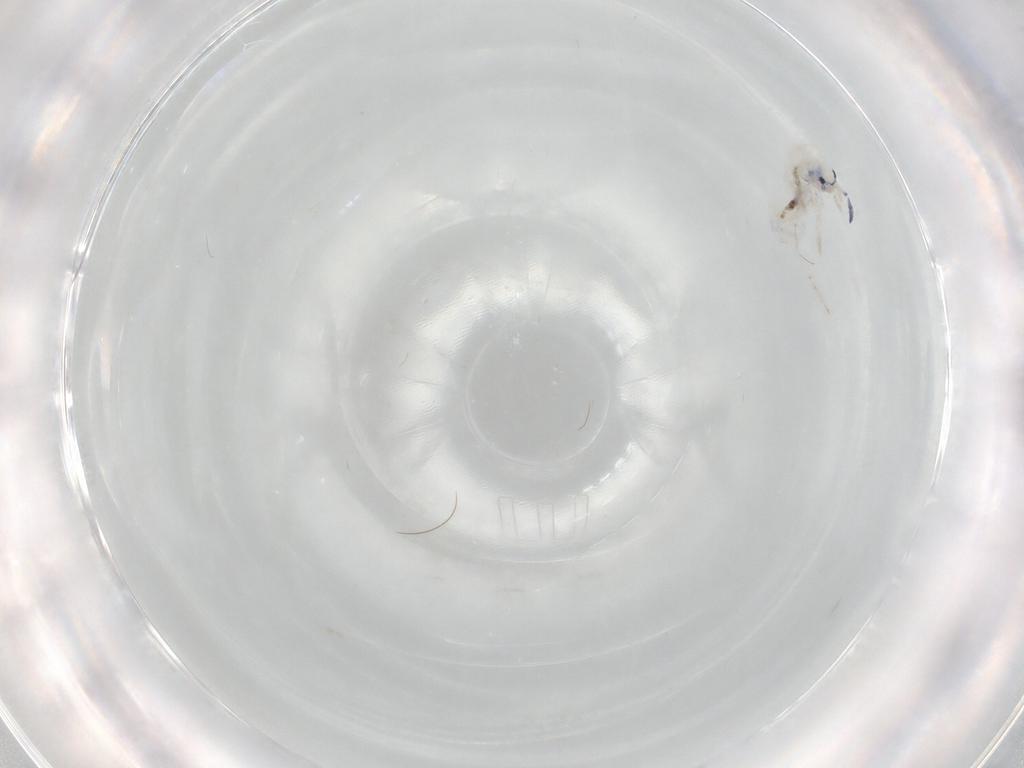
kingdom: Animalia
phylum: Arthropoda
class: Collembola
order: Entomobryomorpha
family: Entomobryidae
